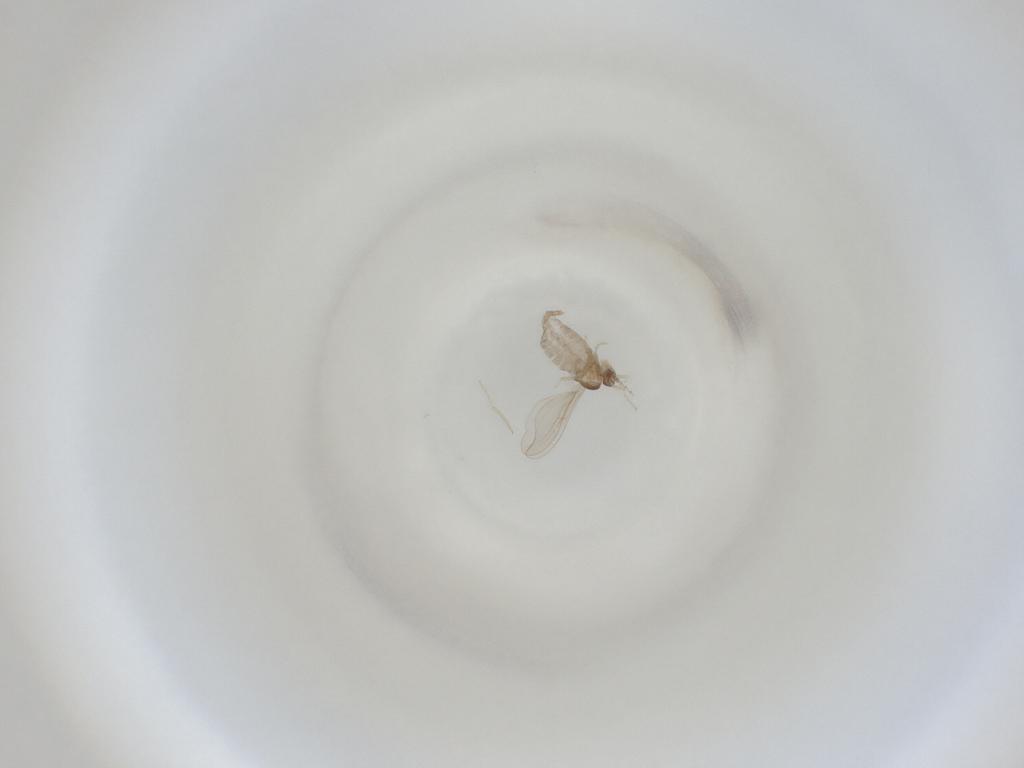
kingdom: Animalia
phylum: Arthropoda
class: Insecta
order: Diptera
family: Cecidomyiidae
